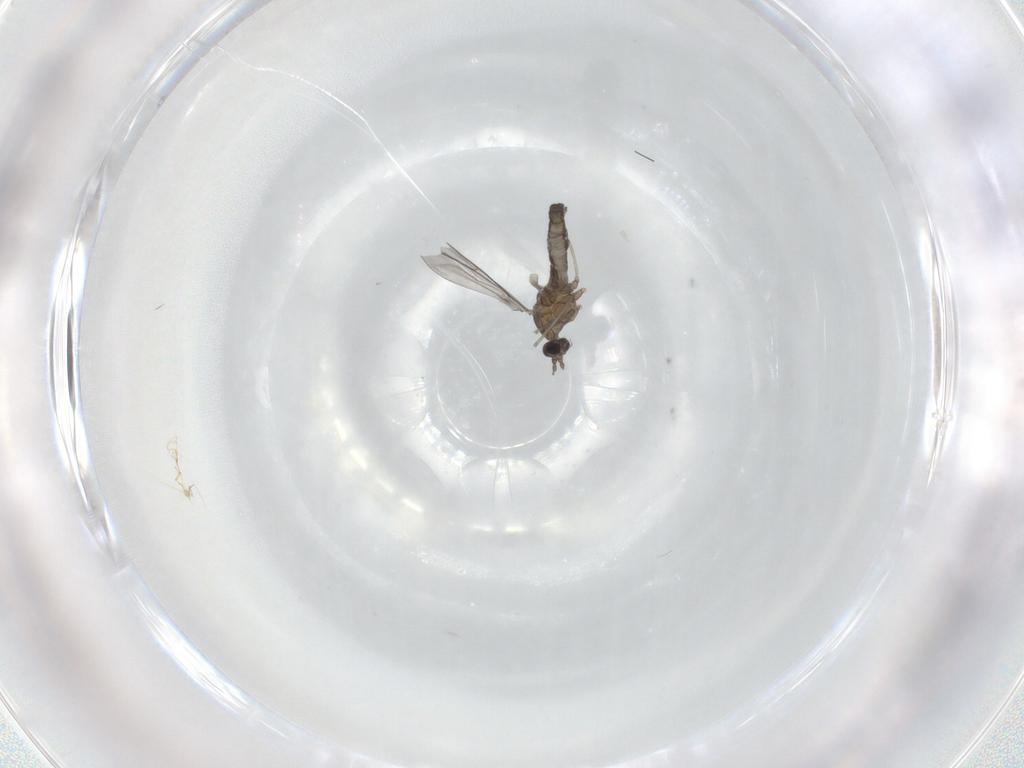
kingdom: Animalia
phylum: Arthropoda
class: Insecta
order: Diptera
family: Cecidomyiidae
